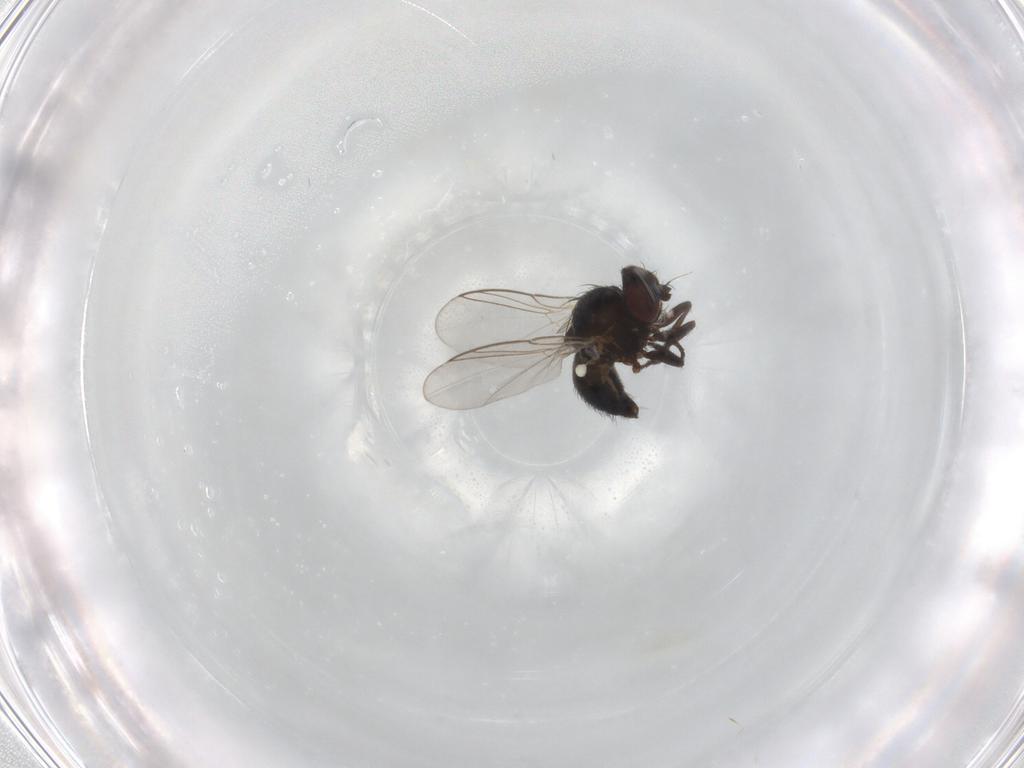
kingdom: Animalia
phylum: Arthropoda
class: Insecta
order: Diptera
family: Agromyzidae
